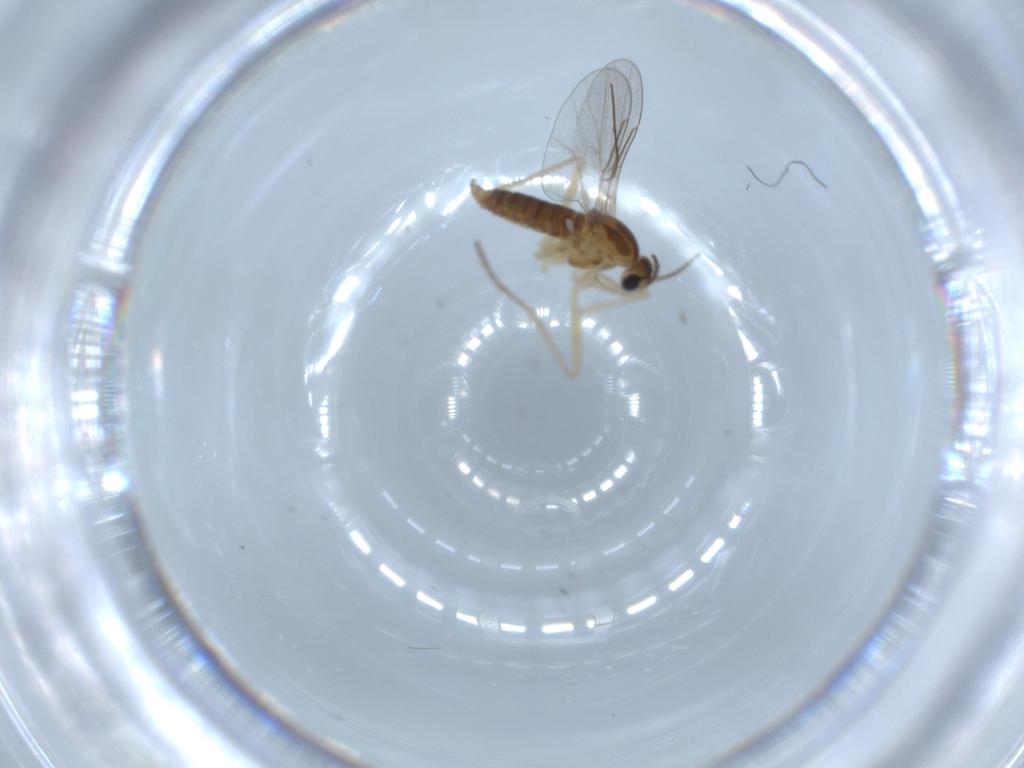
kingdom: Animalia
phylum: Arthropoda
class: Insecta
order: Diptera
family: Cecidomyiidae
